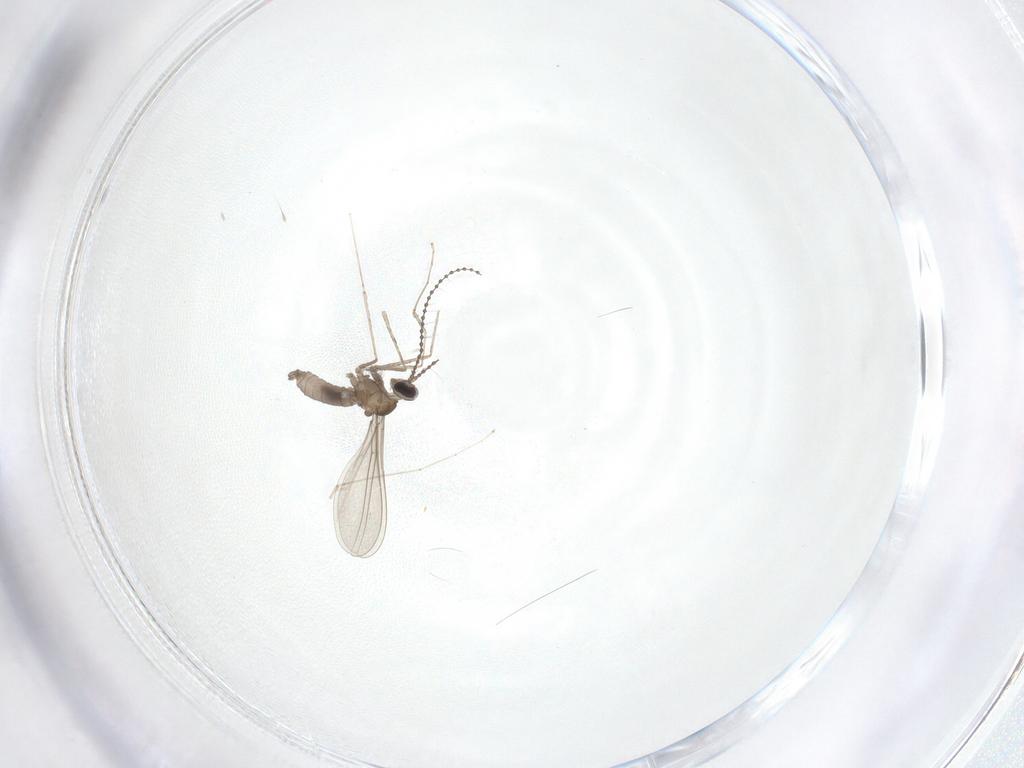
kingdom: Animalia
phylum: Arthropoda
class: Insecta
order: Diptera
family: Cecidomyiidae
